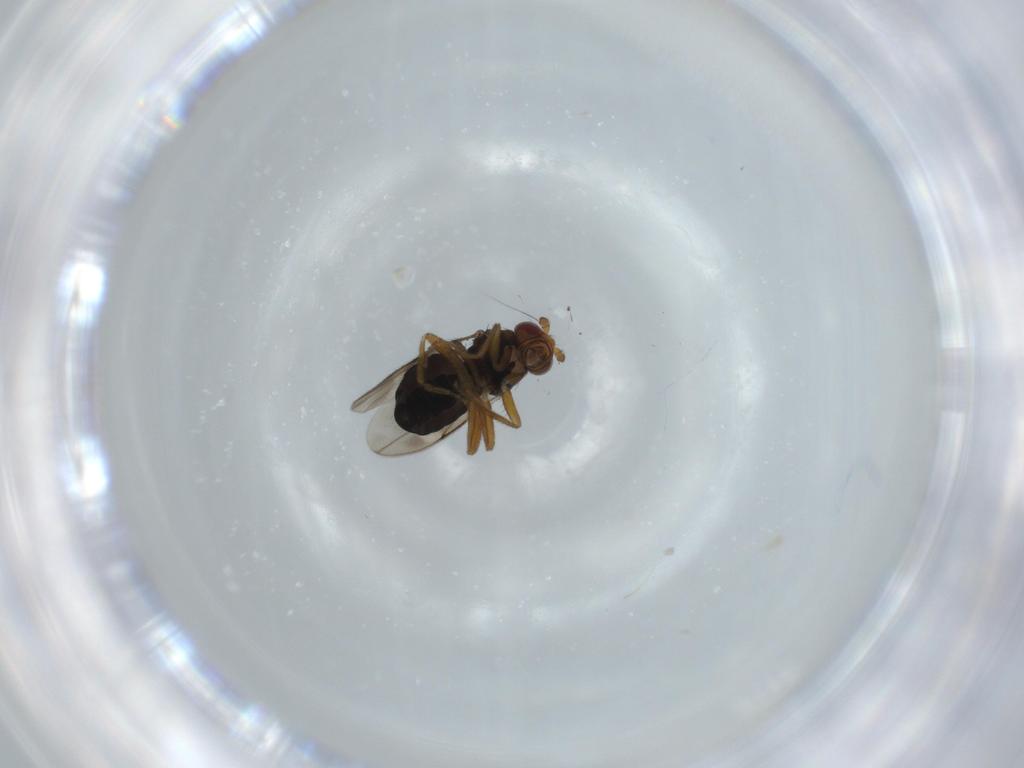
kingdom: Animalia
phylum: Arthropoda
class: Insecta
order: Diptera
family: Sphaeroceridae
